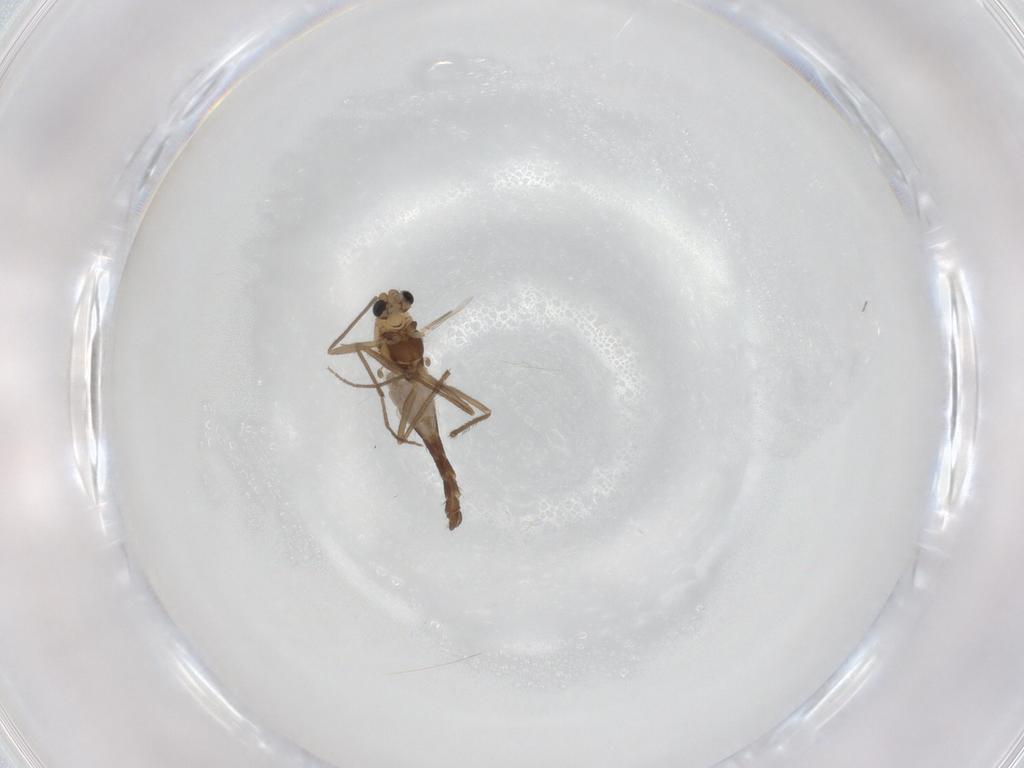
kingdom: Animalia
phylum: Arthropoda
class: Insecta
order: Diptera
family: Chironomidae
